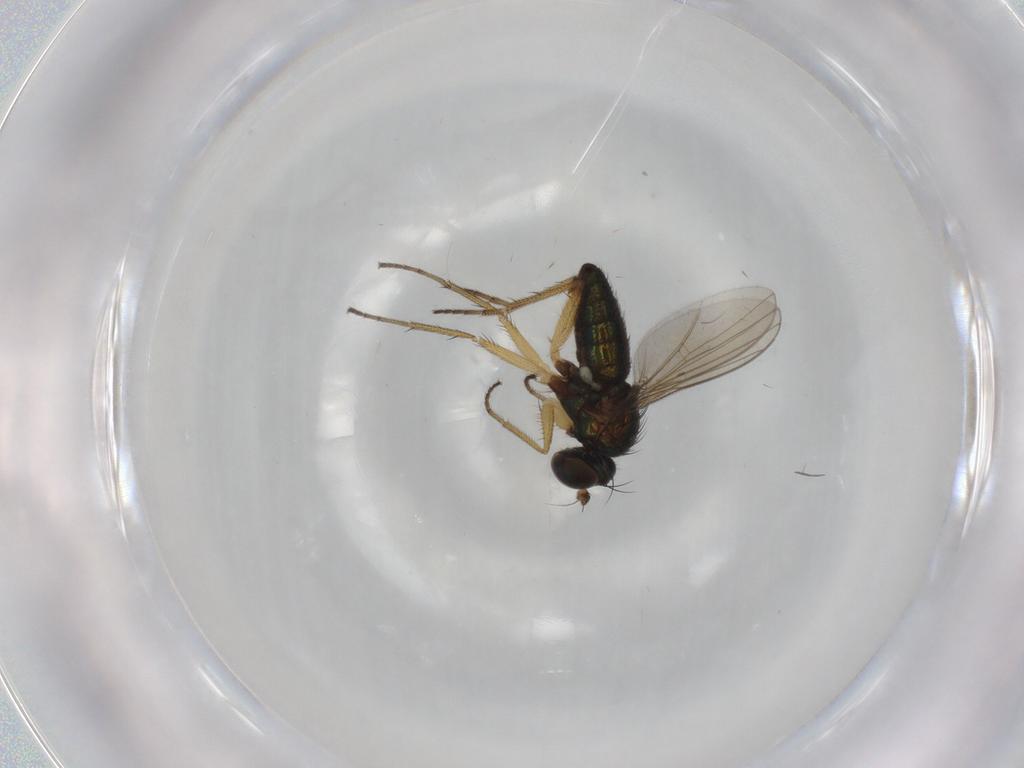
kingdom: Animalia
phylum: Arthropoda
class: Insecta
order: Diptera
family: Dolichopodidae
